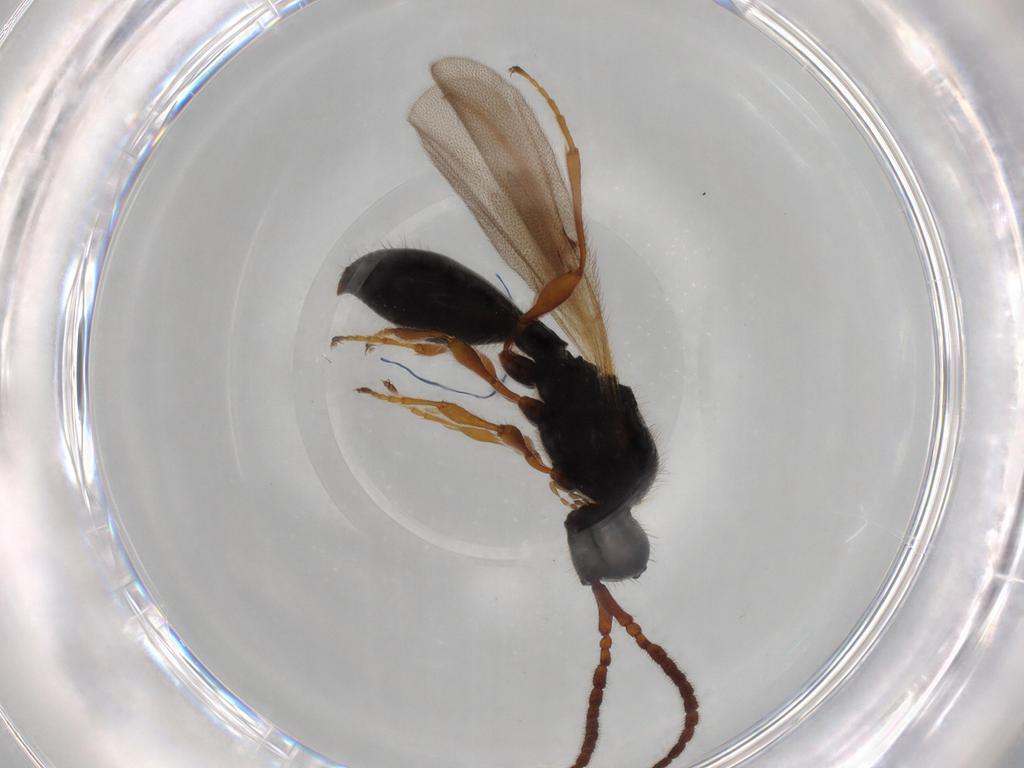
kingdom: Animalia
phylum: Arthropoda
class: Insecta
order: Hymenoptera
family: Diapriidae
